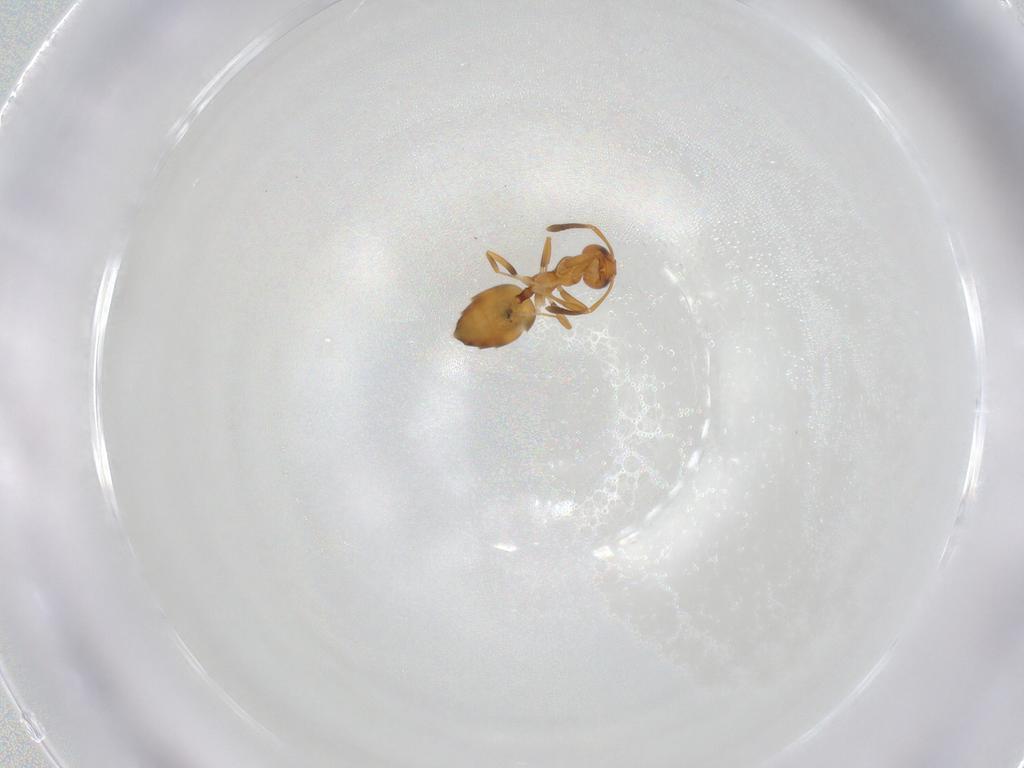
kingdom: Animalia
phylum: Arthropoda
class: Insecta
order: Hymenoptera
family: Formicidae
